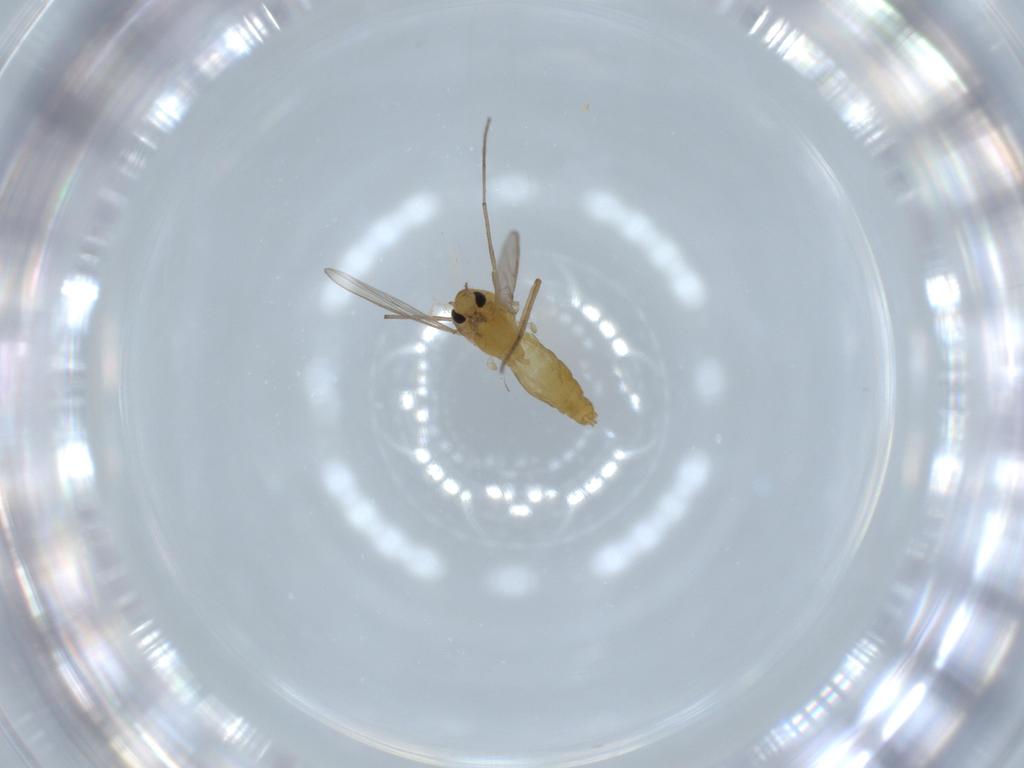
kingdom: Animalia
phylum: Arthropoda
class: Insecta
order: Diptera
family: Chironomidae
